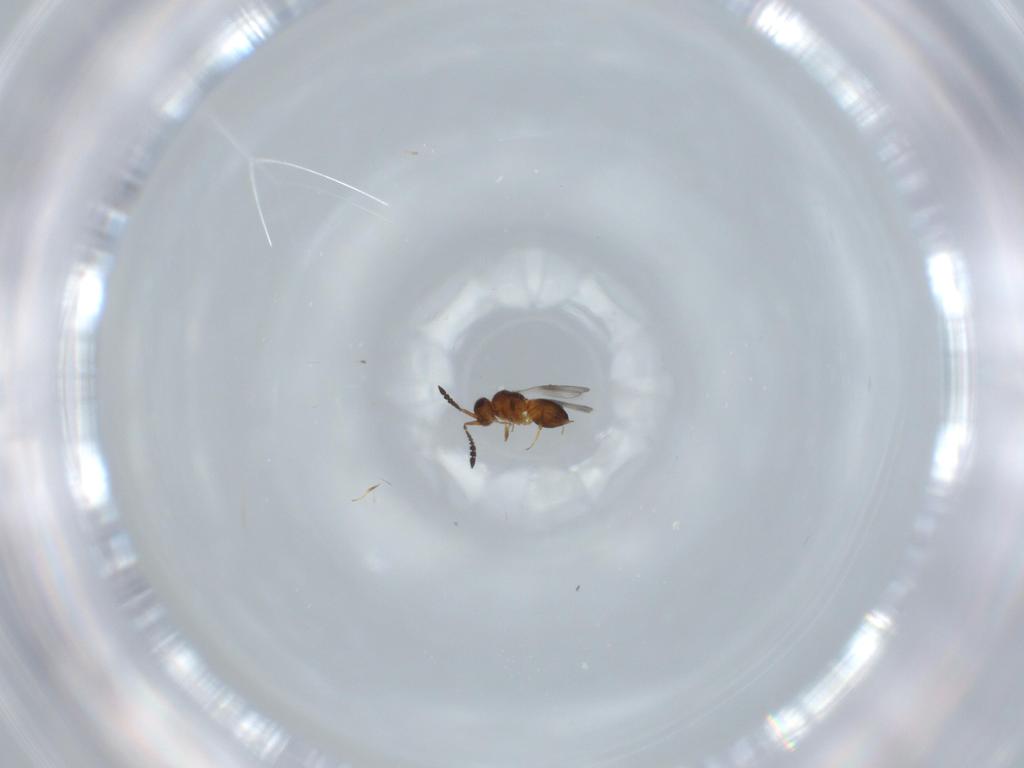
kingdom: Animalia
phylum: Arthropoda
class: Insecta
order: Hymenoptera
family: Ceraphronidae
